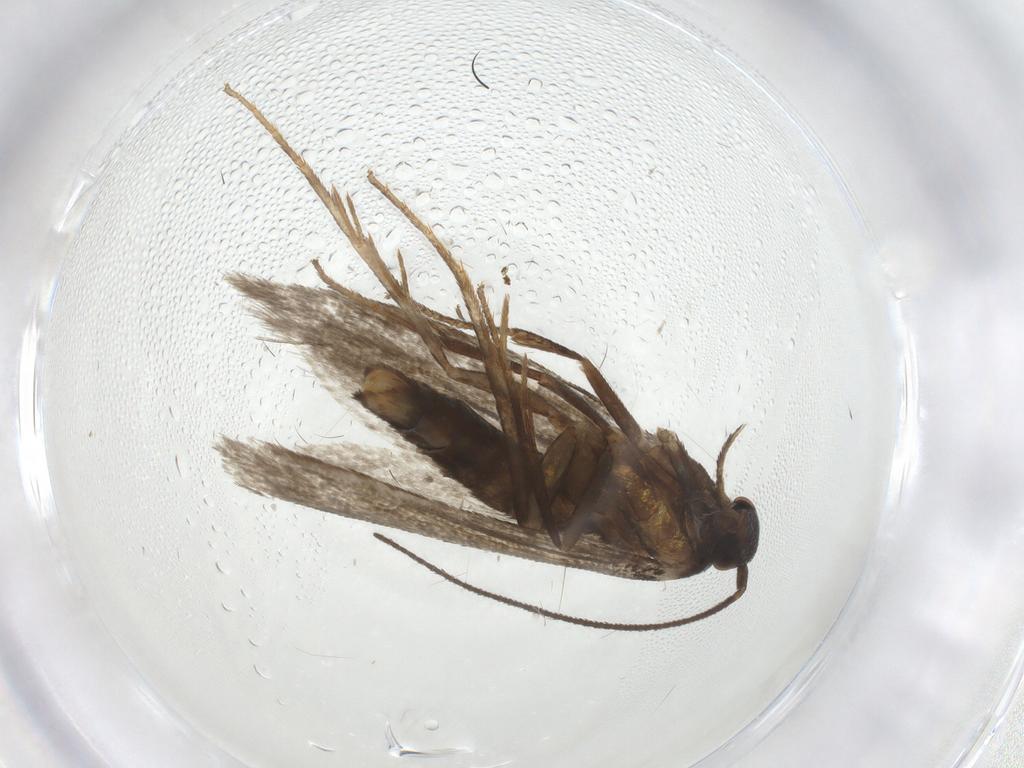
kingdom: Animalia
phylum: Arthropoda
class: Insecta
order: Lepidoptera
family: Argyresthiidae
